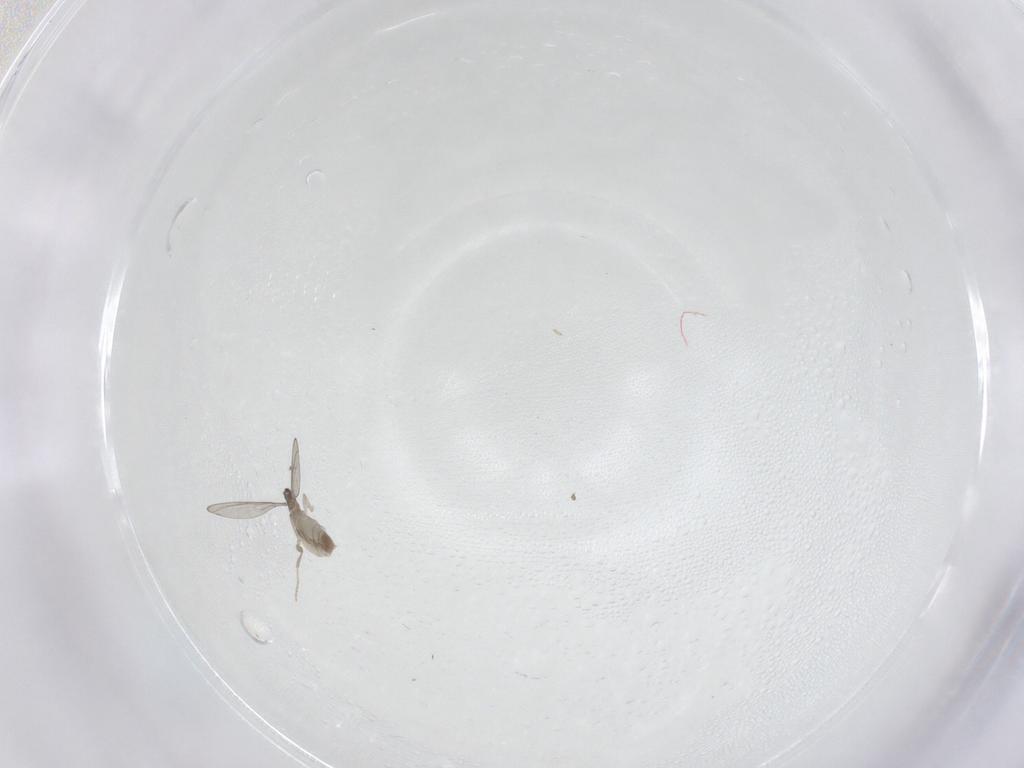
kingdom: Animalia
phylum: Arthropoda
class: Insecta
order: Diptera
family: Cecidomyiidae
